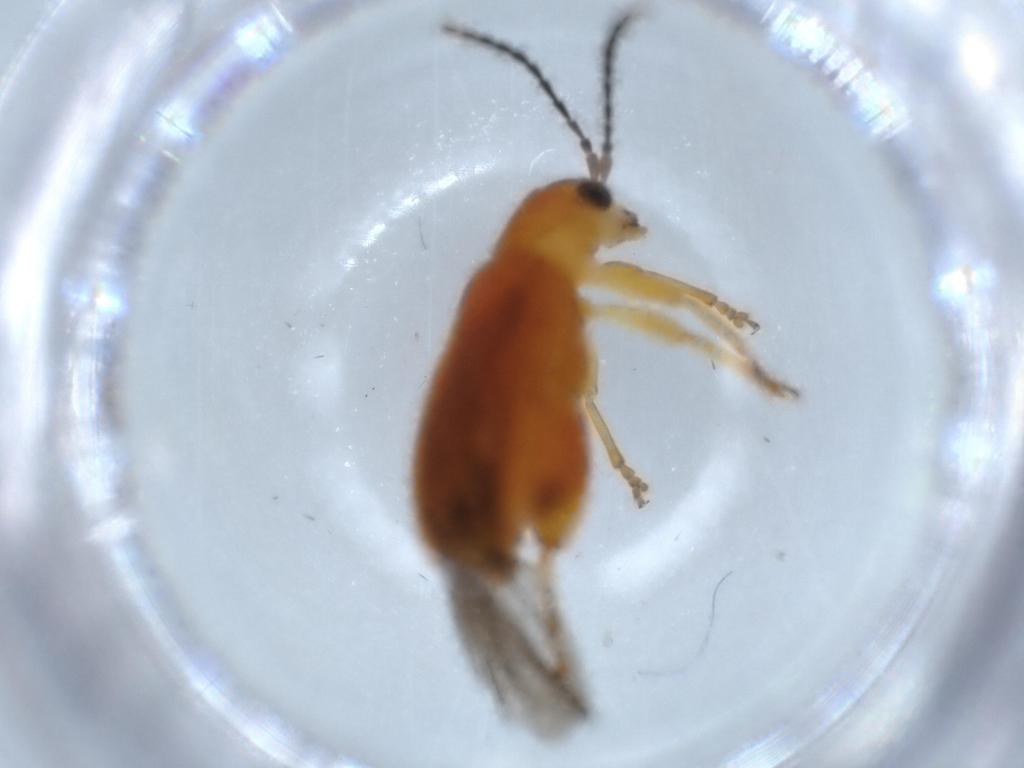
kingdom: Animalia
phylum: Arthropoda
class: Insecta
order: Coleoptera
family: Chrysomelidae
